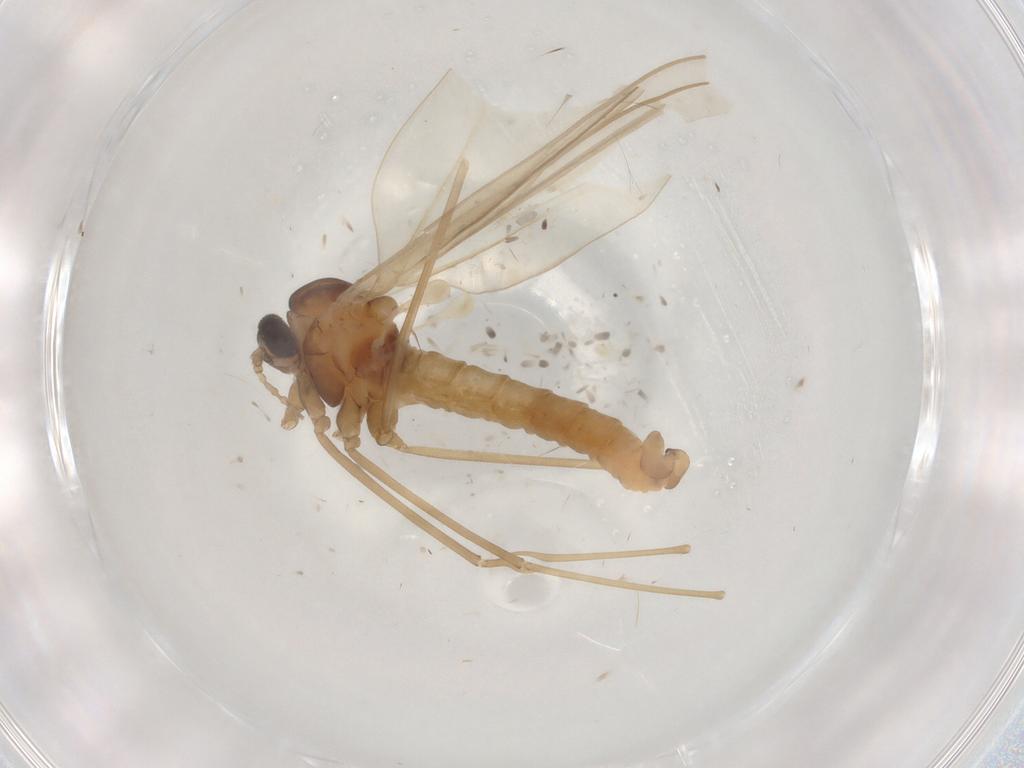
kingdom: Animalia
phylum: Arthropoda
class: Insecta
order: Diptera
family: Cecidomyiidae
